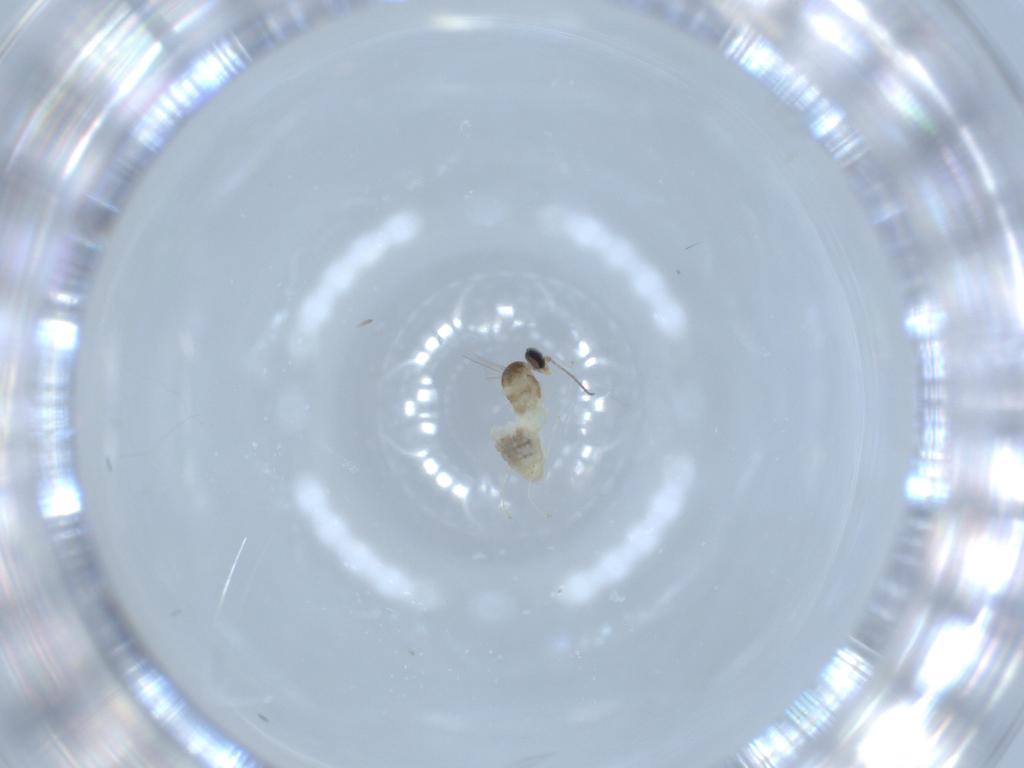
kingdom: Animalia
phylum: Arthropoda
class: Insecta
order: Diptera
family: Cecidomyiidae
